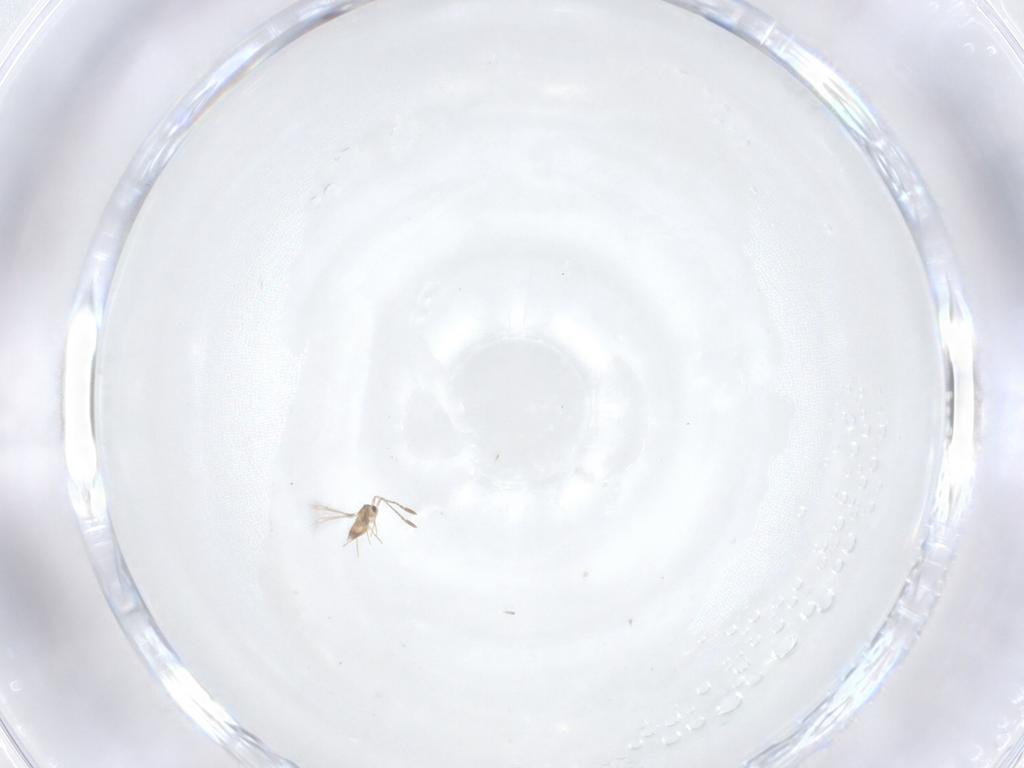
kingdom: Animalia
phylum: Arthropoda
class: Insecta
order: Hymenoptera
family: Mymaridae
